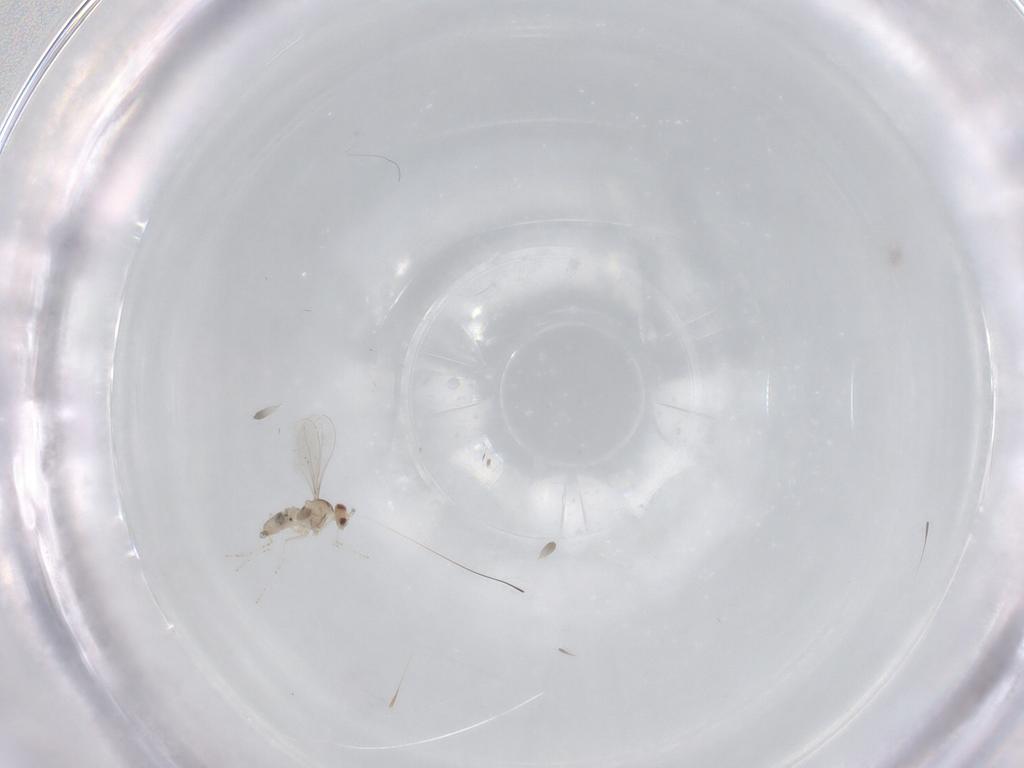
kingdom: Animalia
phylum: Arthropoda
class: Insecta
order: Diptera
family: Cecidomyiidae
